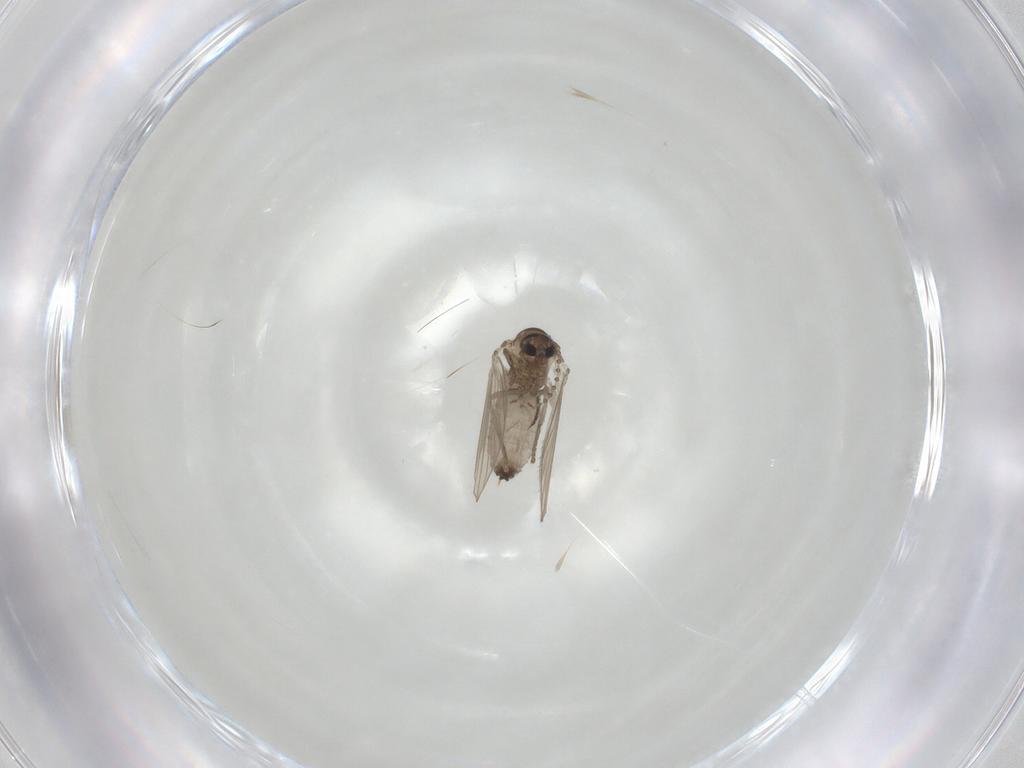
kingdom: Animalia
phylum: Arthropoda
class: Insecta
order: Diptera
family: Psychodidae
